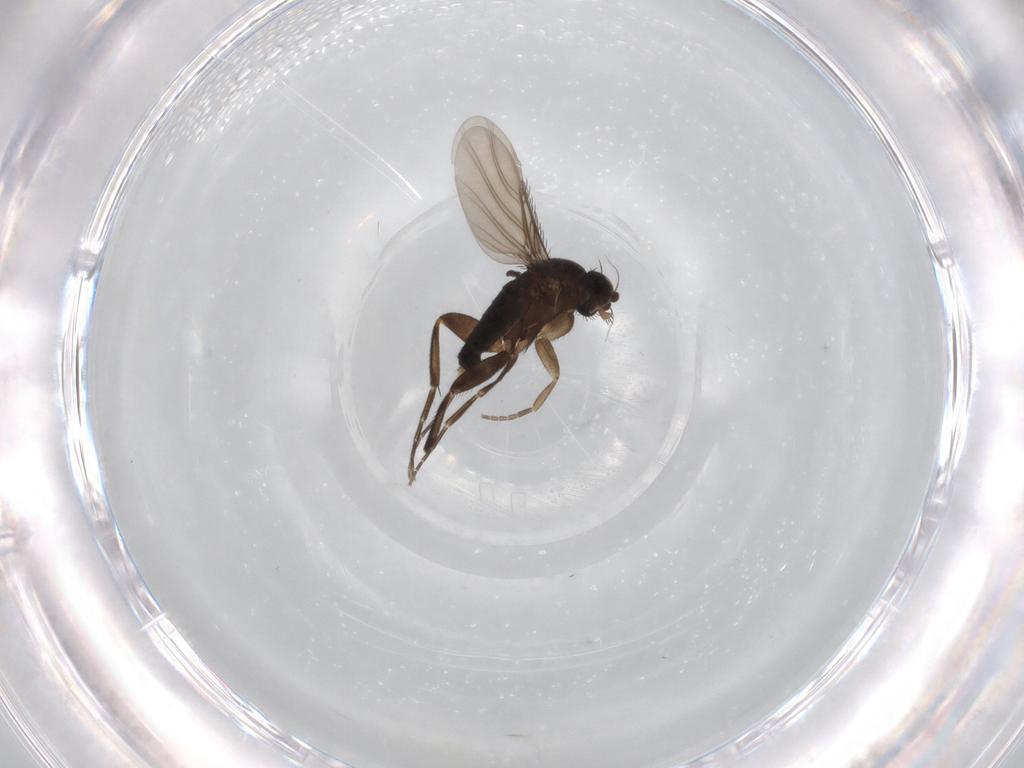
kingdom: Animalia
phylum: Arthropoda
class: Insecta
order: Diptera
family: Phoridae
